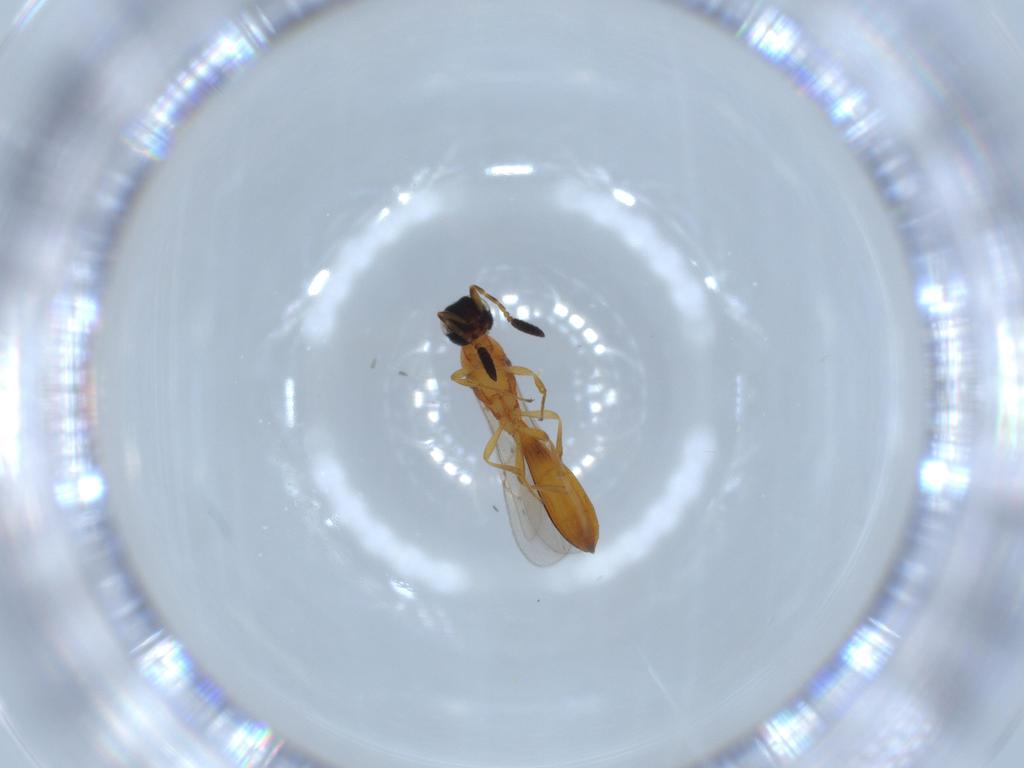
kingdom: Animalia
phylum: Arthropoda
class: Insecta
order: Hymenoptera
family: Scelionidae
